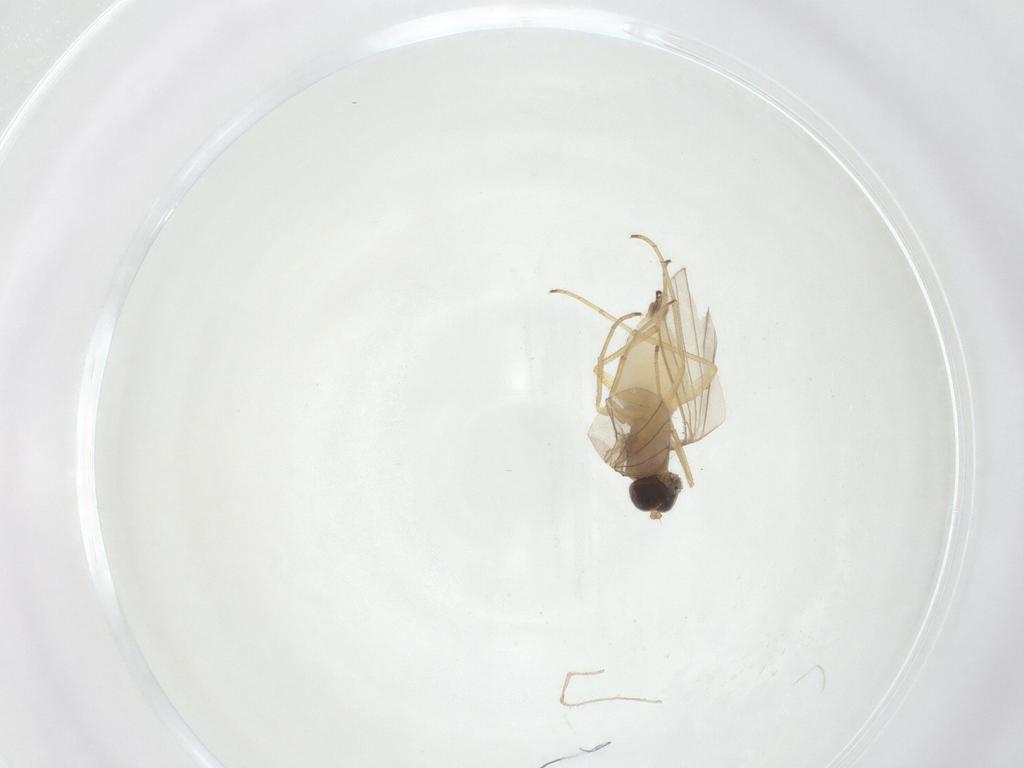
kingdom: Animalia
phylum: Arthropoda
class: Insecta
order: Diptera
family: Dolichopodidae
